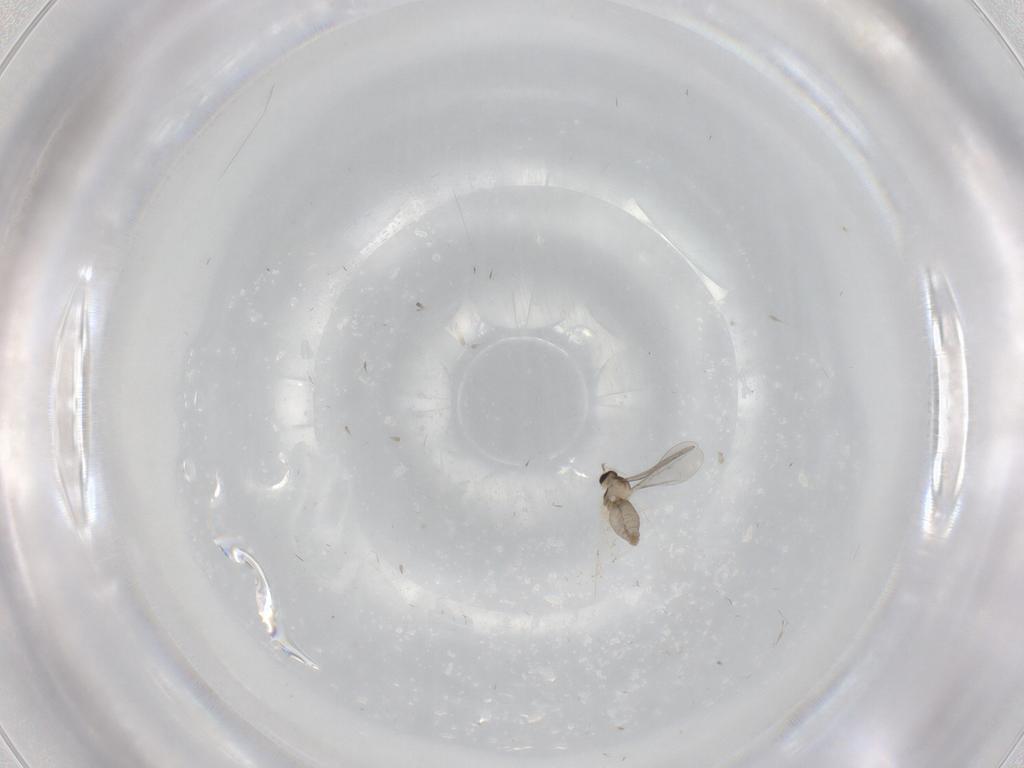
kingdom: Animalia
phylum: Arthropoda
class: Insecta
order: Diptera
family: Cecidomyiidae
